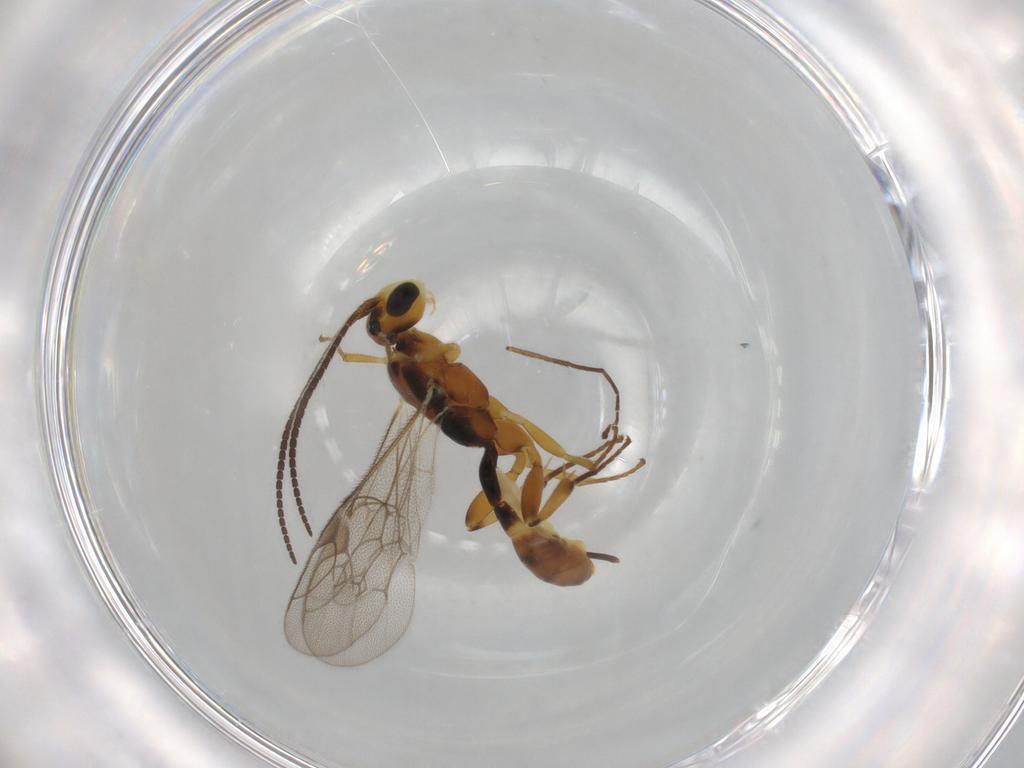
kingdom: Animalia
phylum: Arthropoda
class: Insecta
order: Hymenoptera
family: Ichneumonidae
